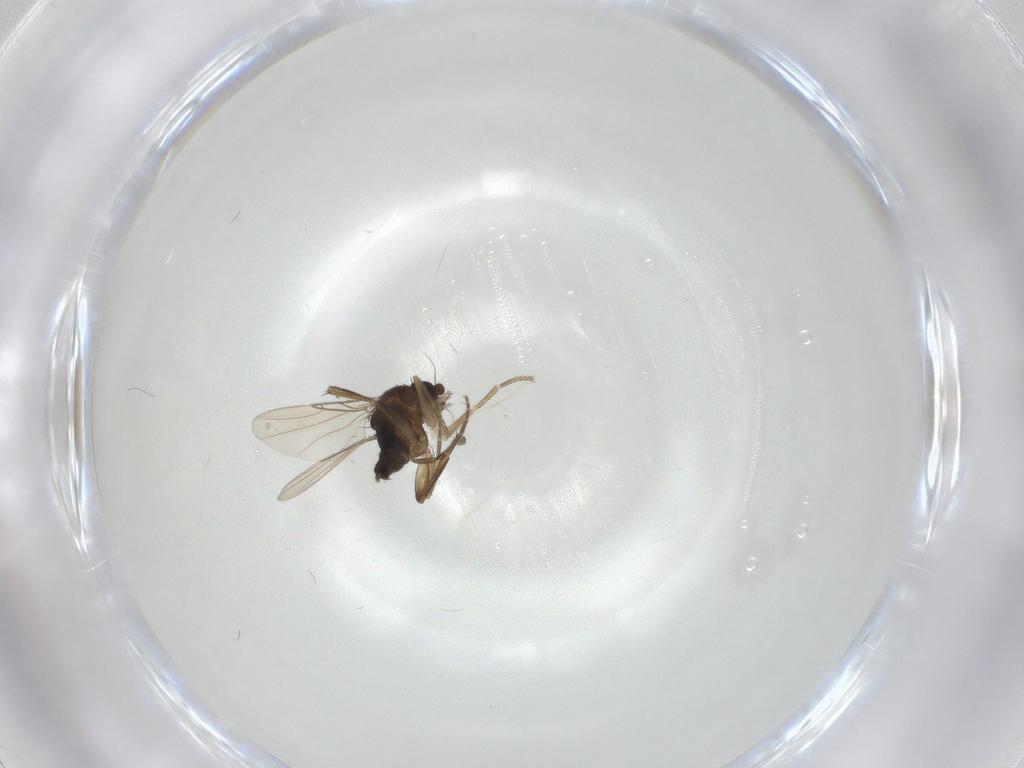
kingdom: Animalia
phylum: Arthropoda
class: Insecta
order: Diptera
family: Phoridae
